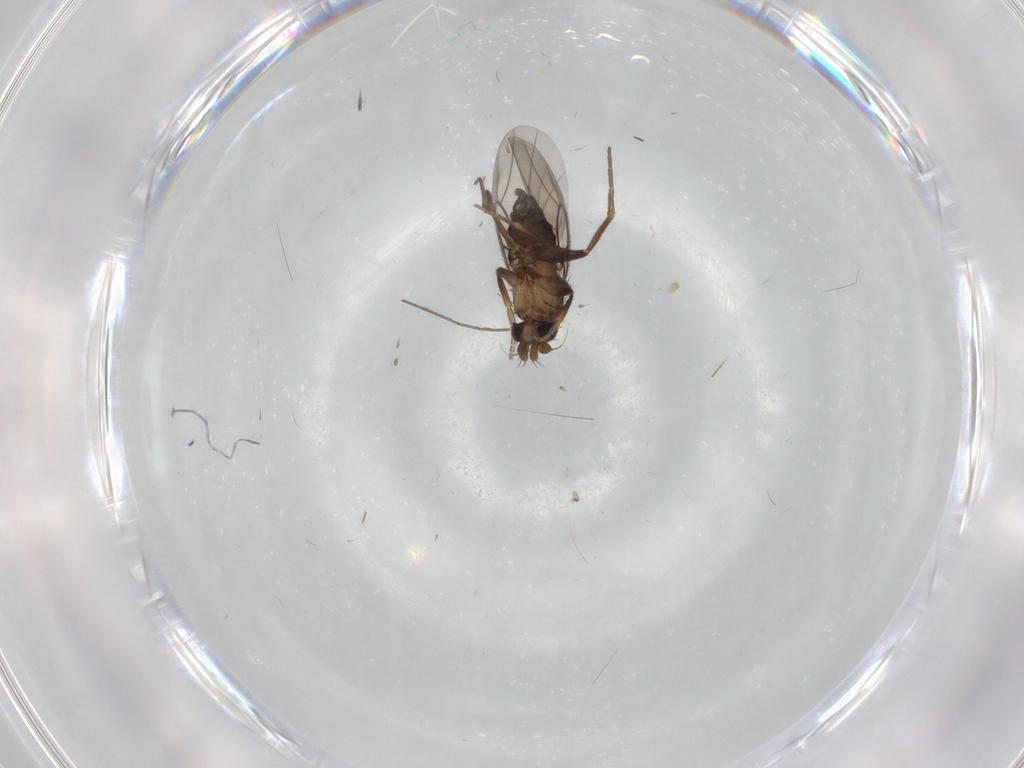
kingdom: Animalia
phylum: Arthropoda
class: Insecta
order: Diptera
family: Phoridae
